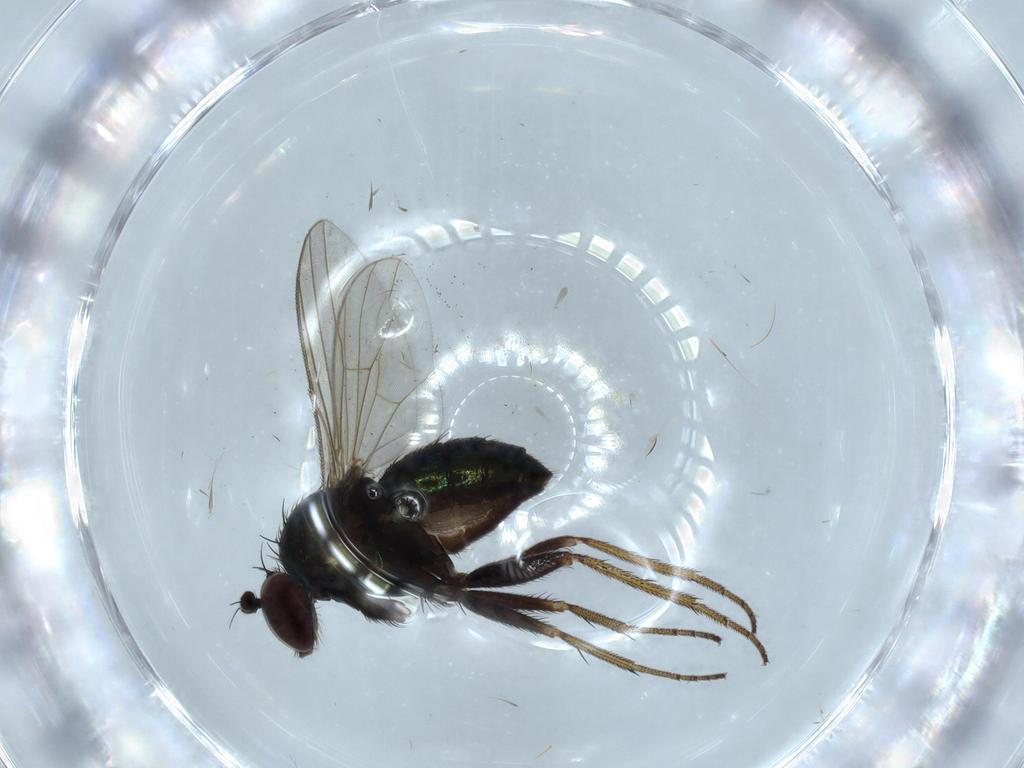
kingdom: Animalia
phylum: Arthropoda
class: Insecta
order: Diptera
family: Dolichopodidae
